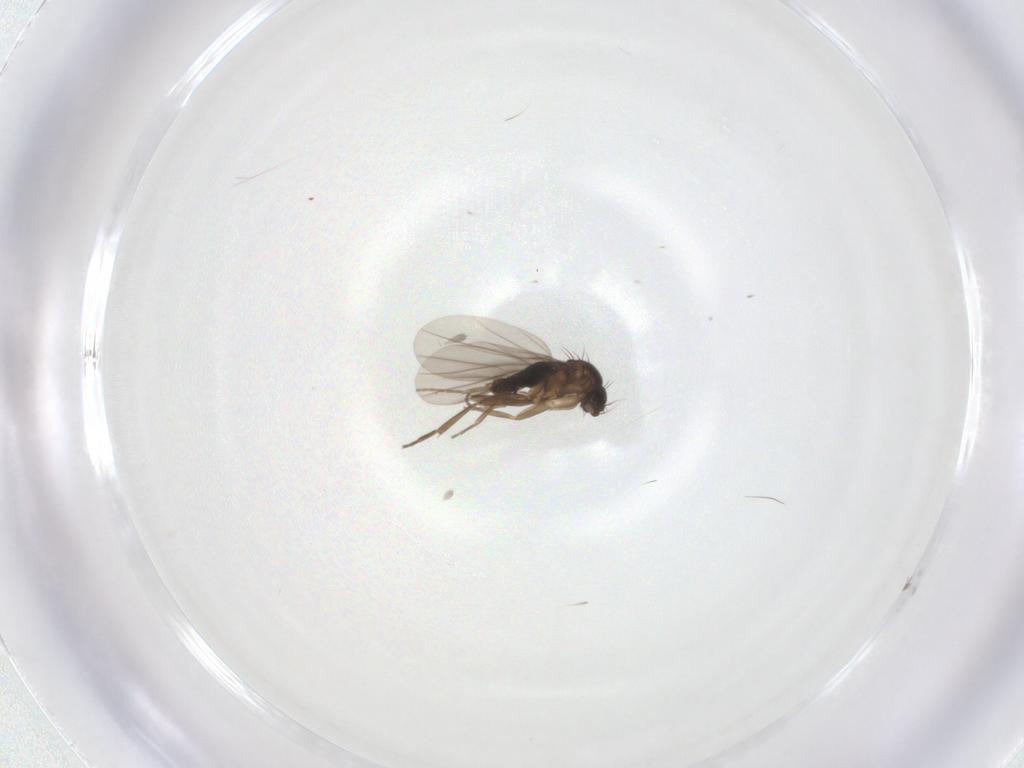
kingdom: Animalia
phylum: Arthropoda
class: Insecta
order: Diptera
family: Phoridae
